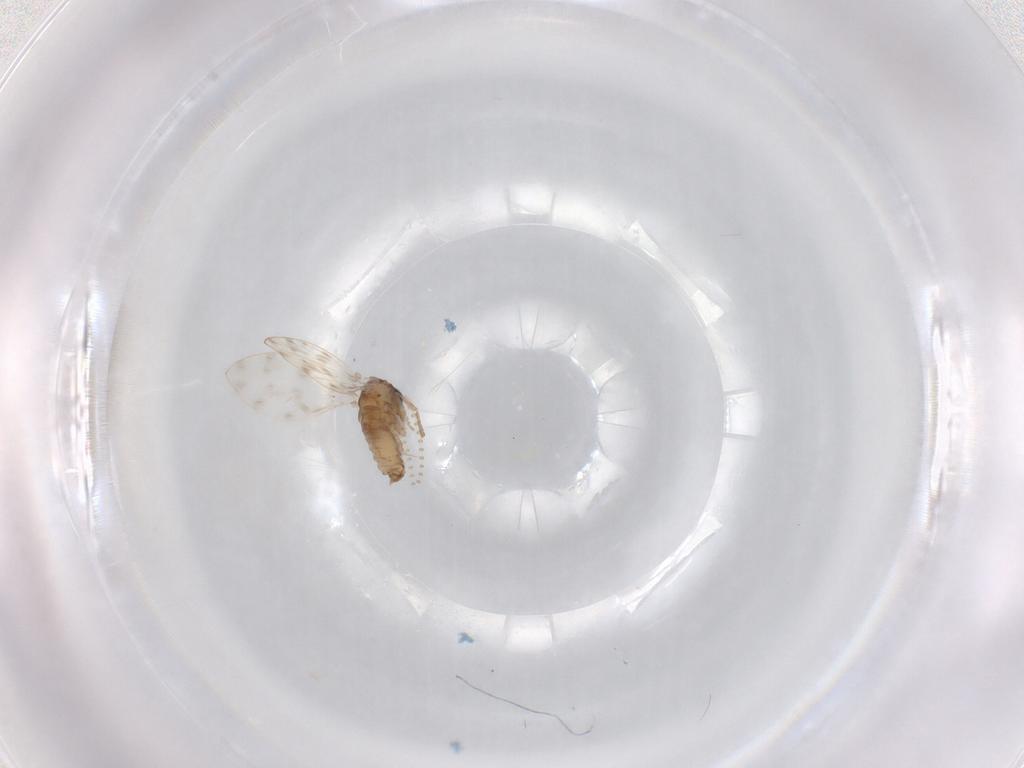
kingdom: Animalia
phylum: Arthropoda
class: Insecta
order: Diptera
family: Psychodidae
